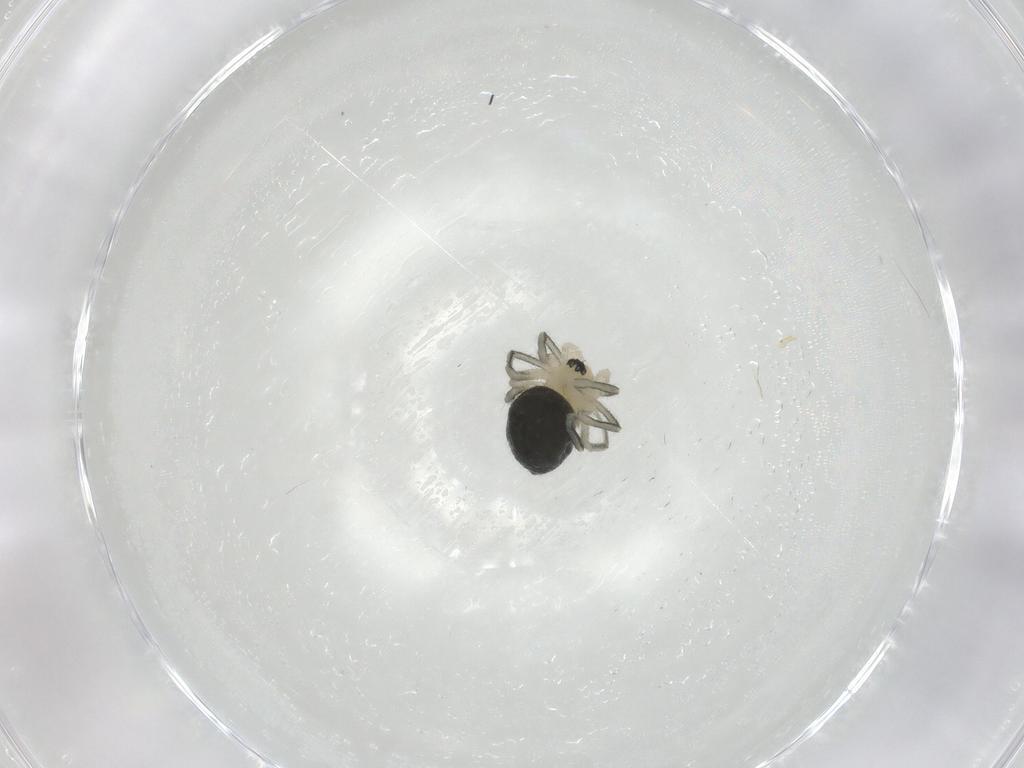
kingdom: Animalia
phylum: Arthropoda
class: Arachnida
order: Araneae
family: Linyphiidae
